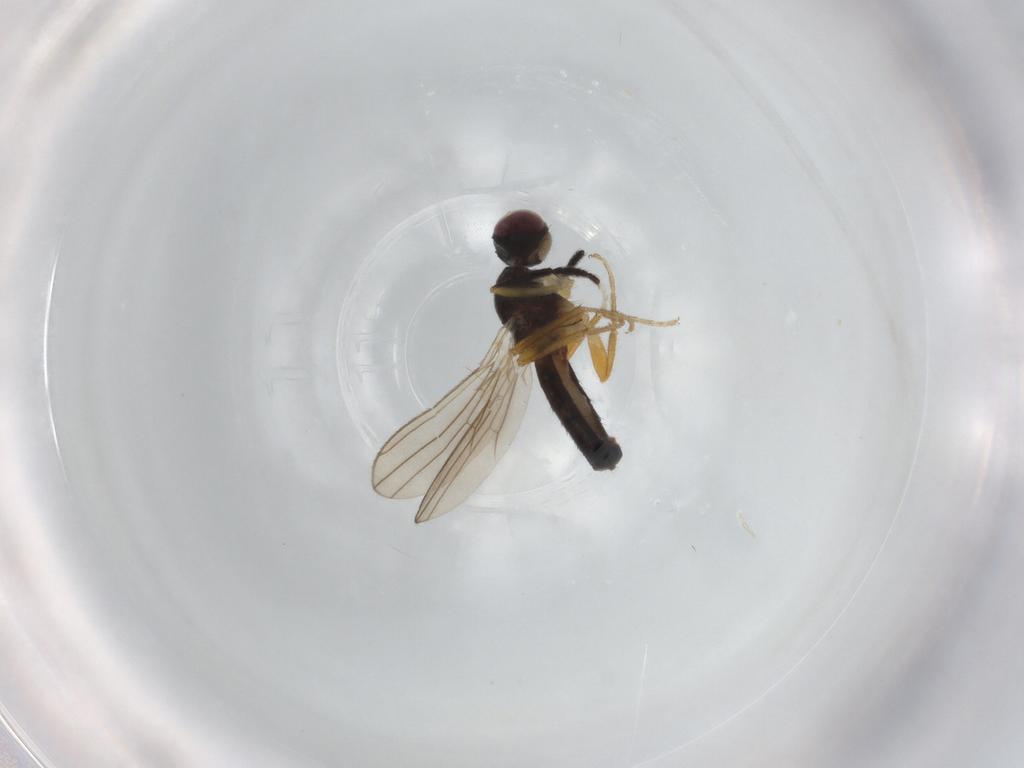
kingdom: Animalia
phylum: Arthropoda
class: Insecta
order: Diptera
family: Anthomyzidae
